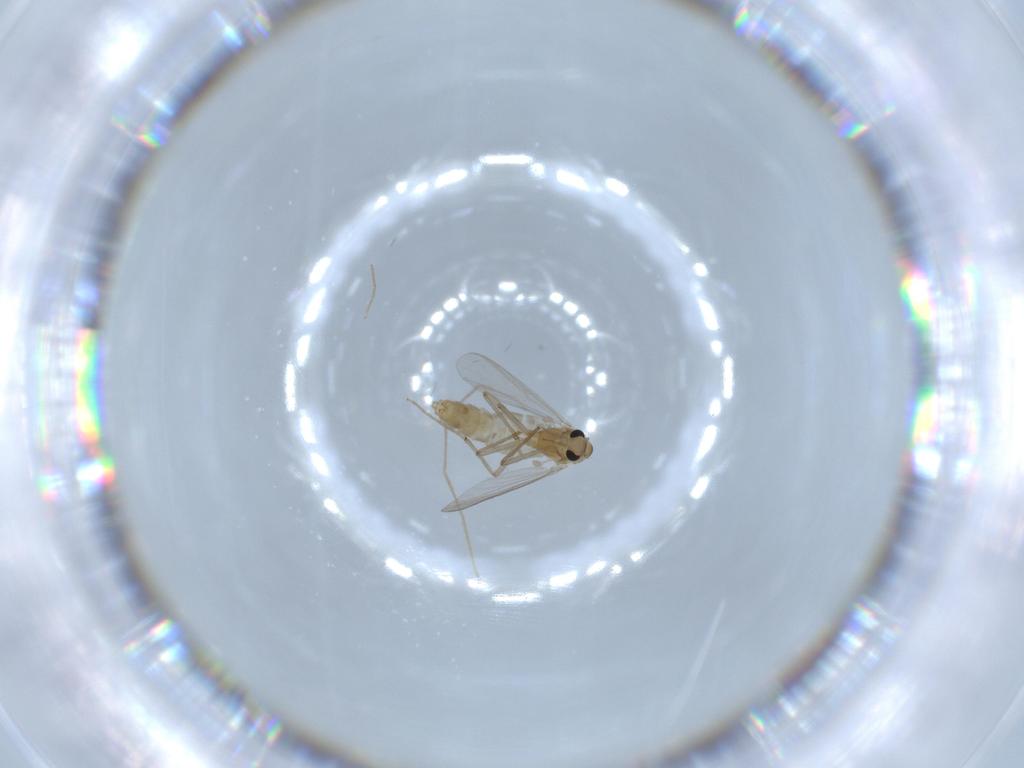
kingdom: Animalia
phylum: Arthropoda
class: Insecta
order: Diptera
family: Chironomidae
